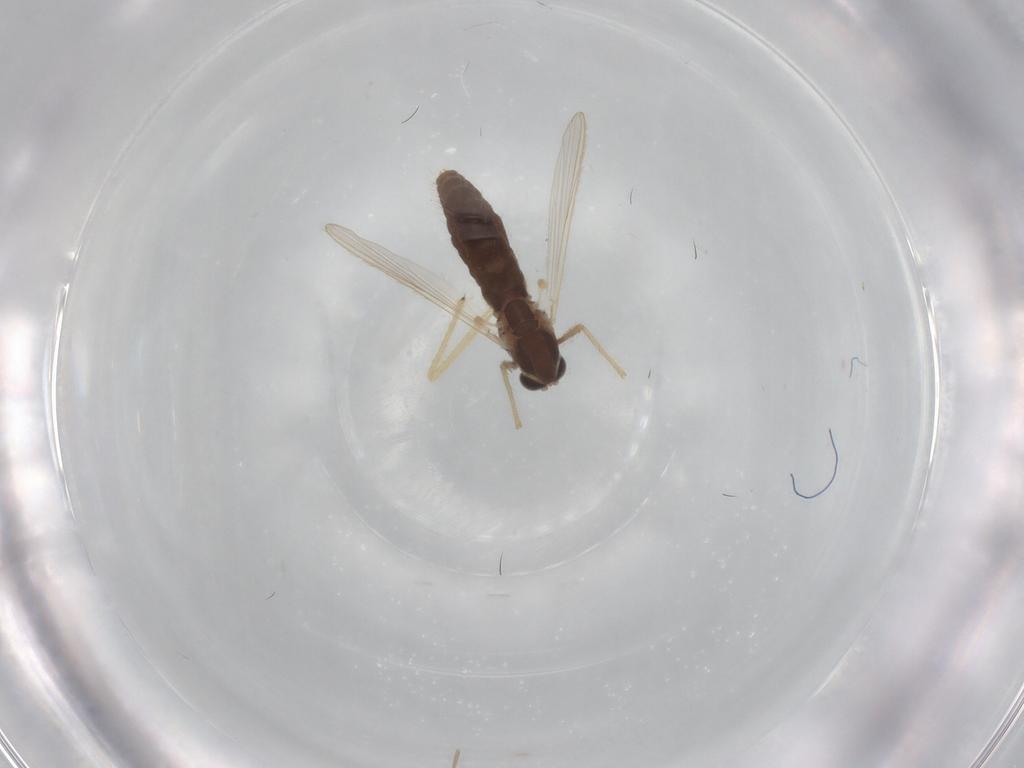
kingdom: Animalia
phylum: Arthropoda
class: Insecta
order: Diptera
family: Chironomidae
